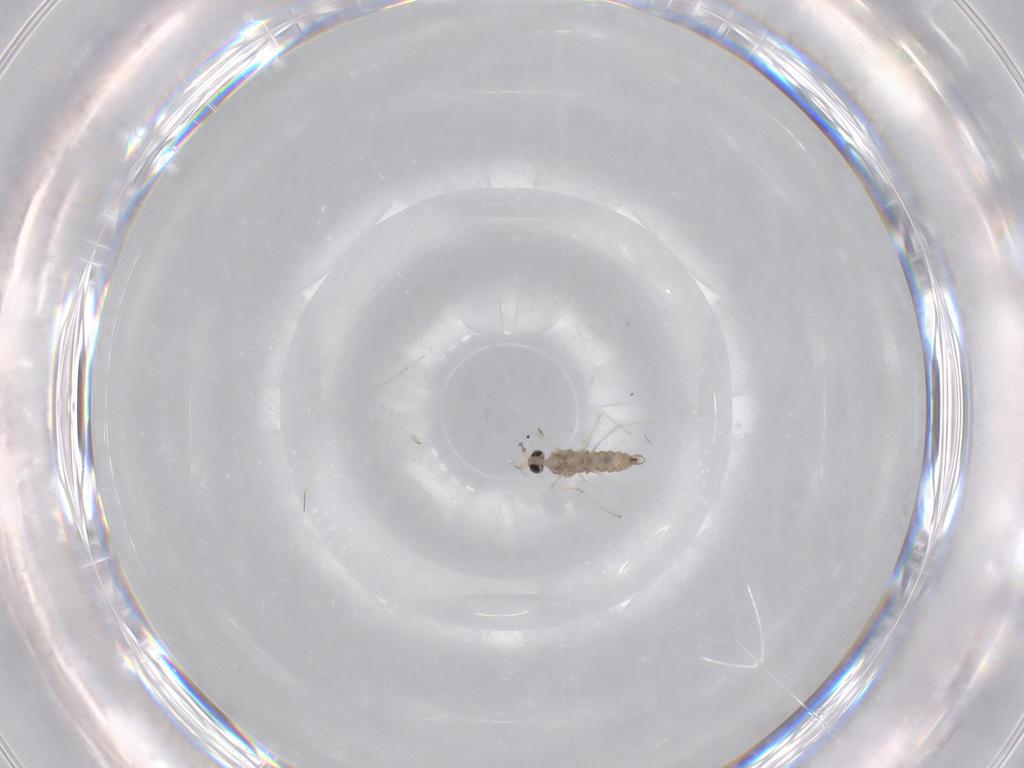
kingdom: Animalia
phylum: Arthropoda
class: Insecta
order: Diptera
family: Cecidomyiidae
